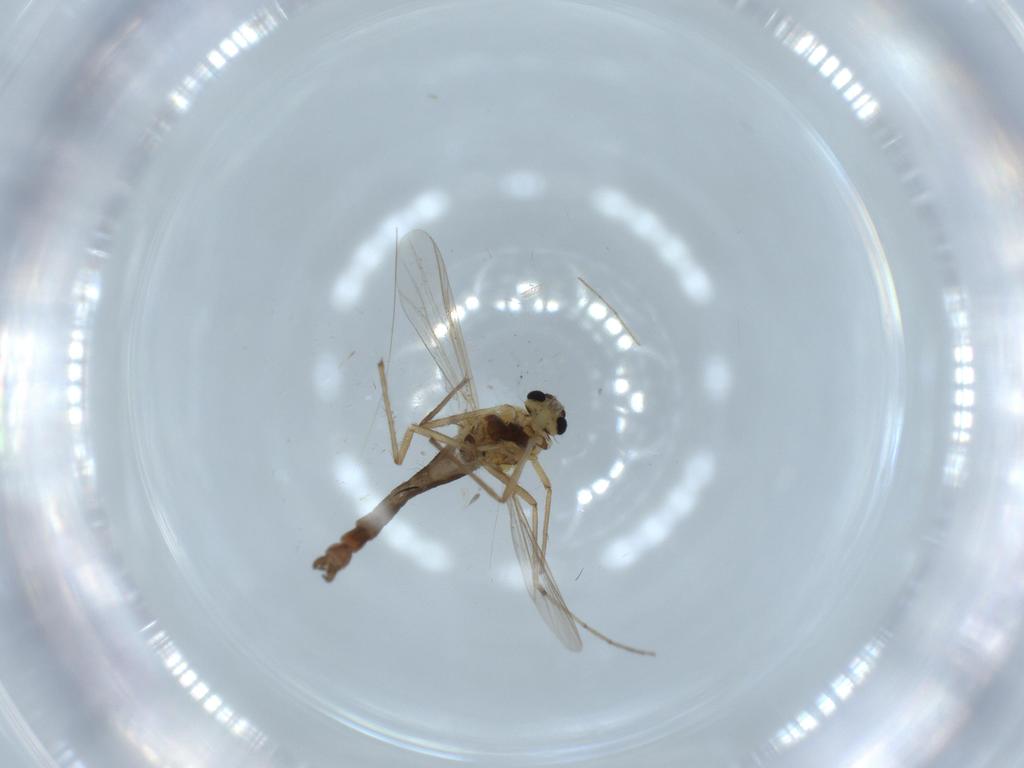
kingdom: Animalia
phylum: Arthropoda
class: Insecta
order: Diptera
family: Chironomidae
